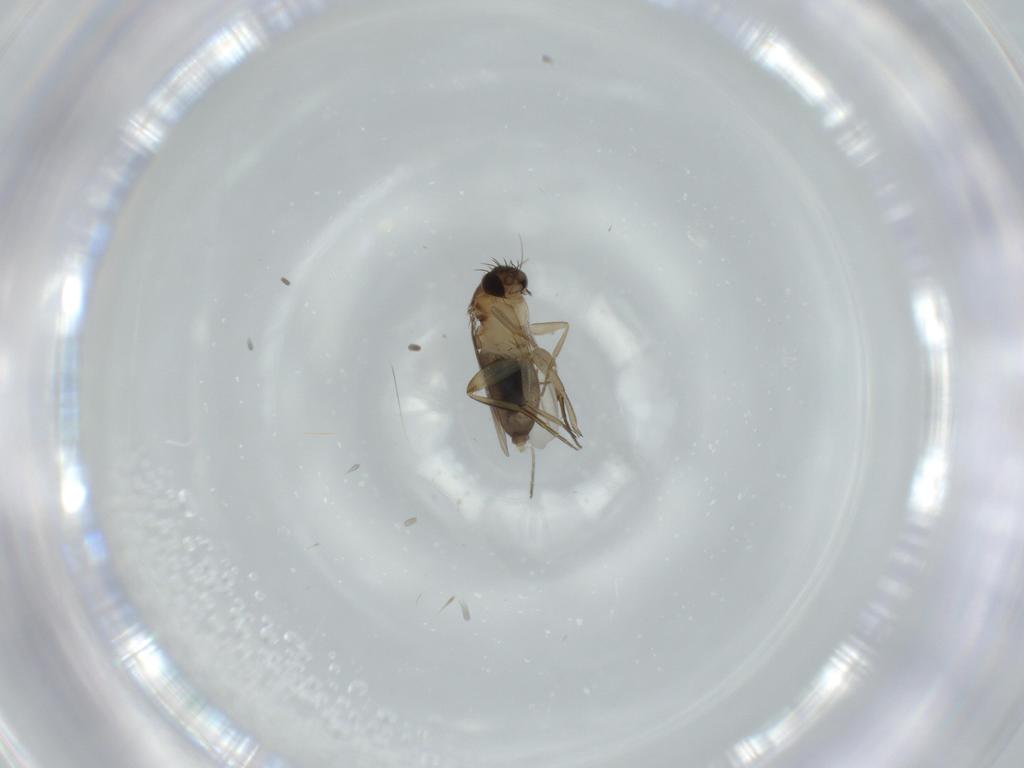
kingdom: Animalia
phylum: Arthropoda
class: Insecta
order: Diptera
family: Phoridae
